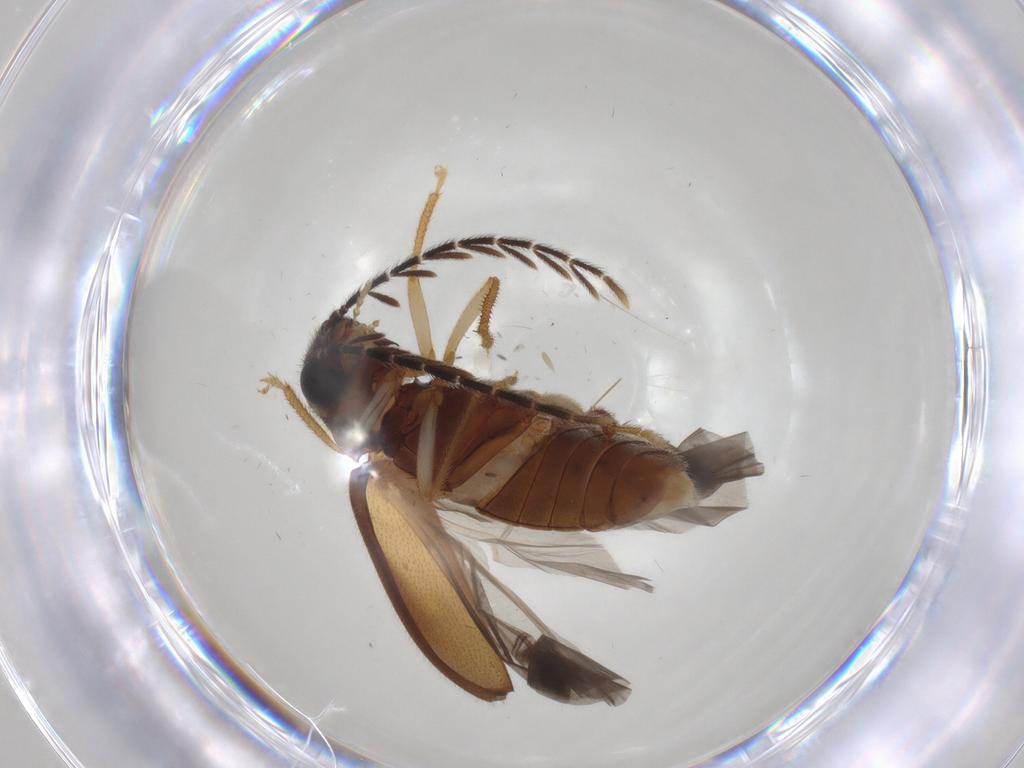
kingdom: Animalia
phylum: Arthropoda
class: Insecta
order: Coleoptera
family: Ptilodactylidae
